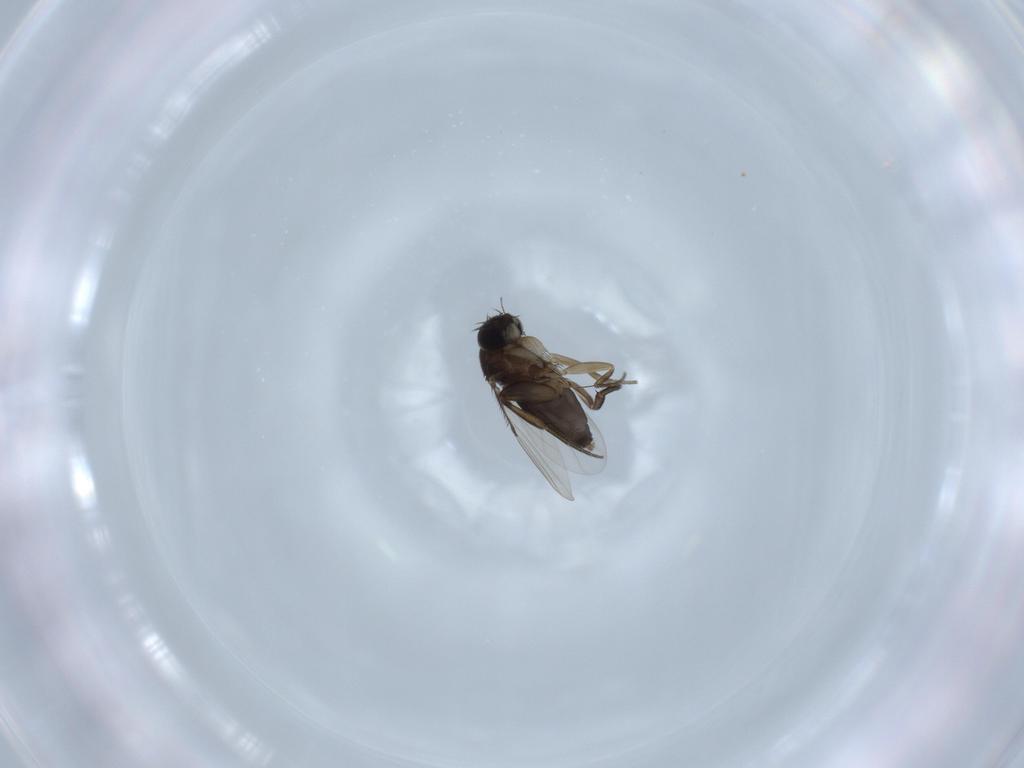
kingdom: Animalia
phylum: Arthropoda
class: Insecta
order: Diptera
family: Phoridae
